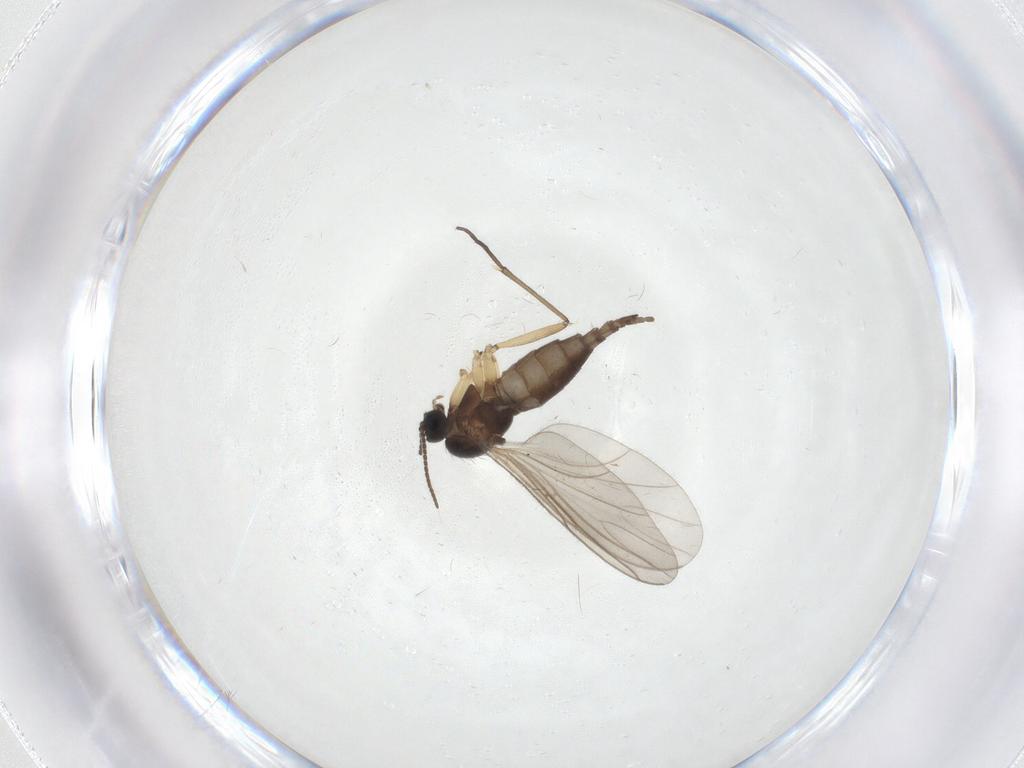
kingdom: Animalia
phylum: Arthropoda
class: Insecta
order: Diptera
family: Sciaridae
